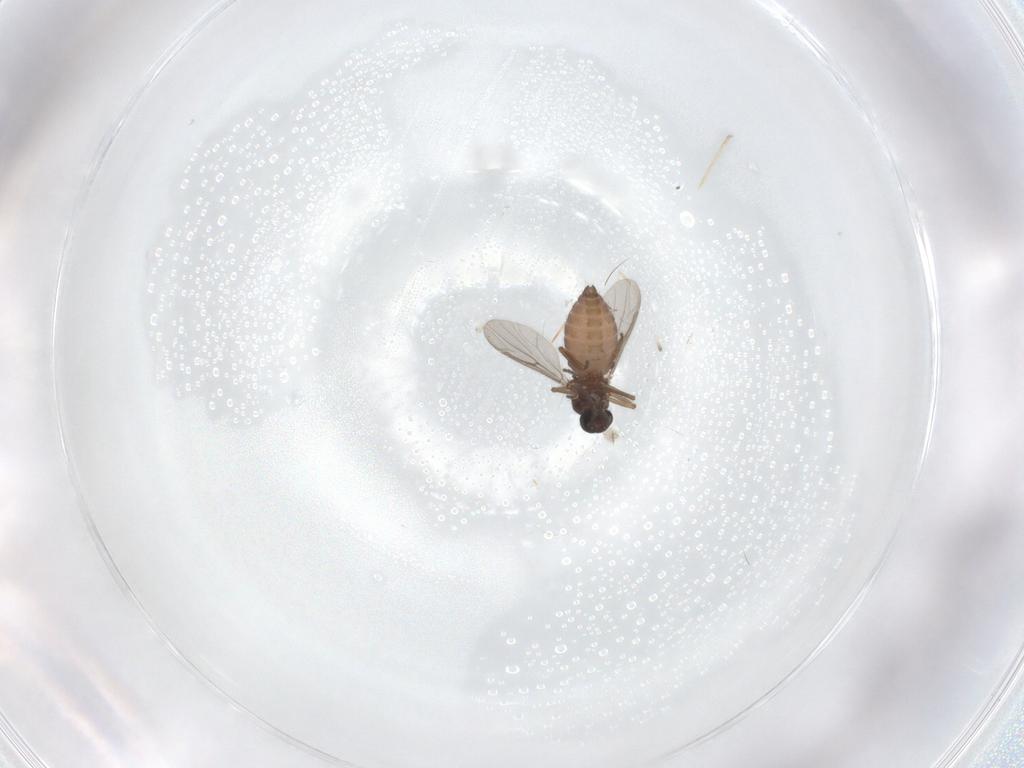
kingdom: Animalia
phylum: Arthropoda
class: Insecta
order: Diptera
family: Ceratopogonidae
